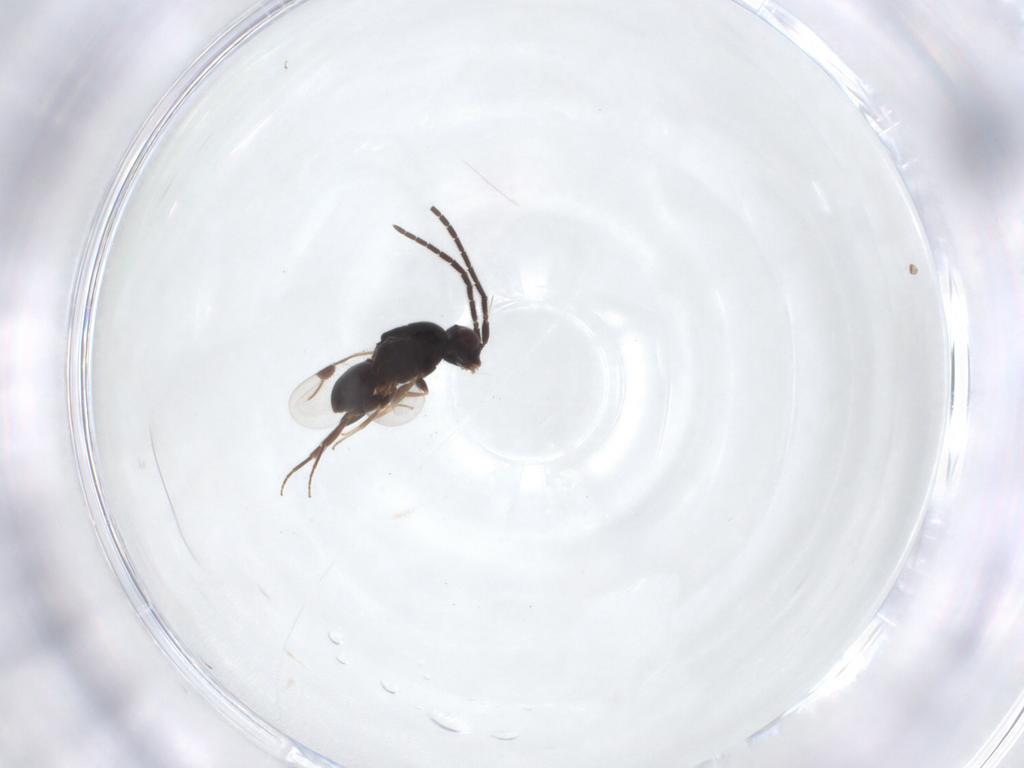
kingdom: Animalia
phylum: Arthropoda
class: Insecta
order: Hymenoptera
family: Megaspilidae
